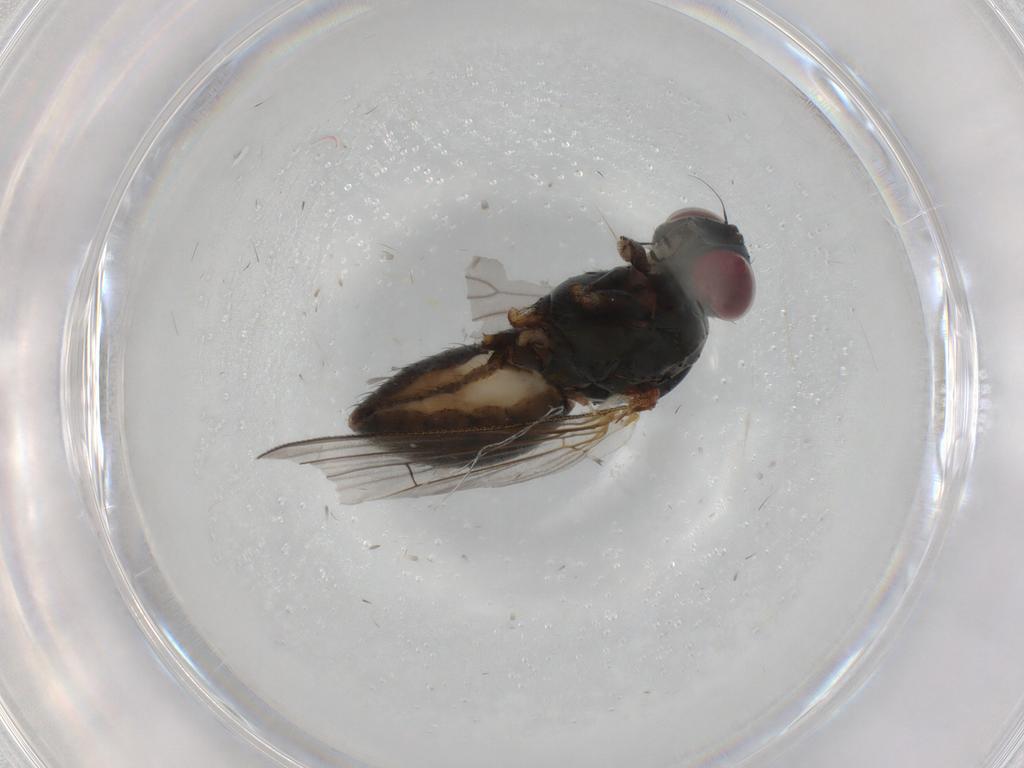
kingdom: Animalia
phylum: Arthropoda
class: Insecta
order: Diptera
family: Muscidae
